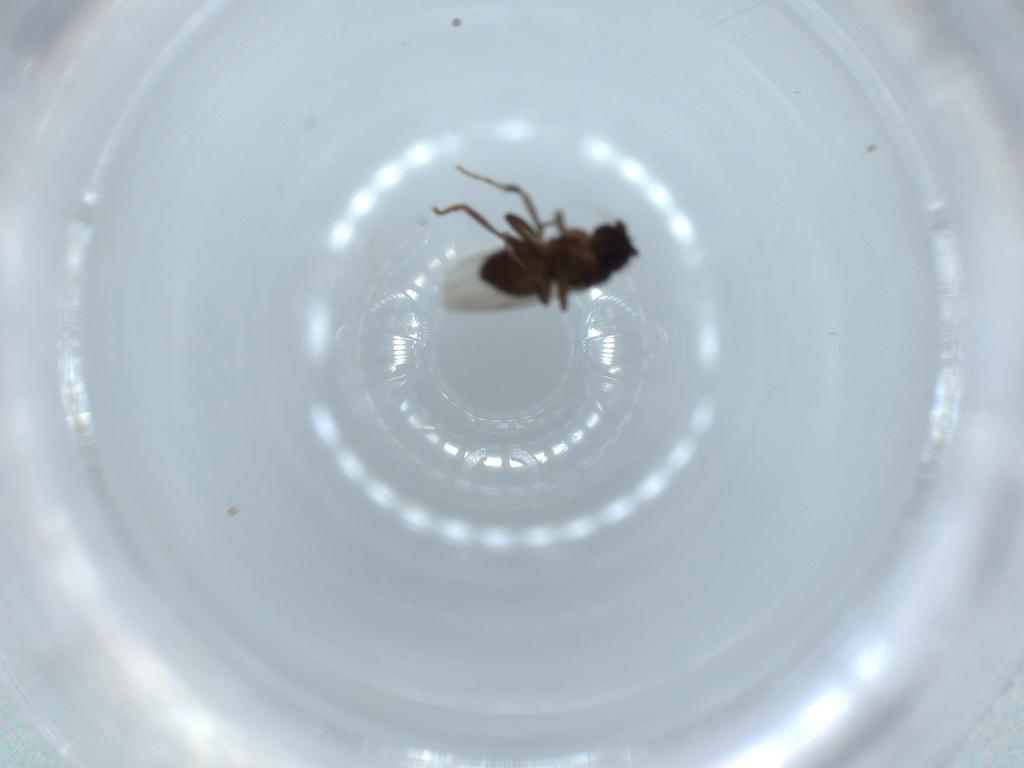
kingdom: Animalia
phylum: Arthropoda
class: Insecta
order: Diptera
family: Sphaeroceridae
